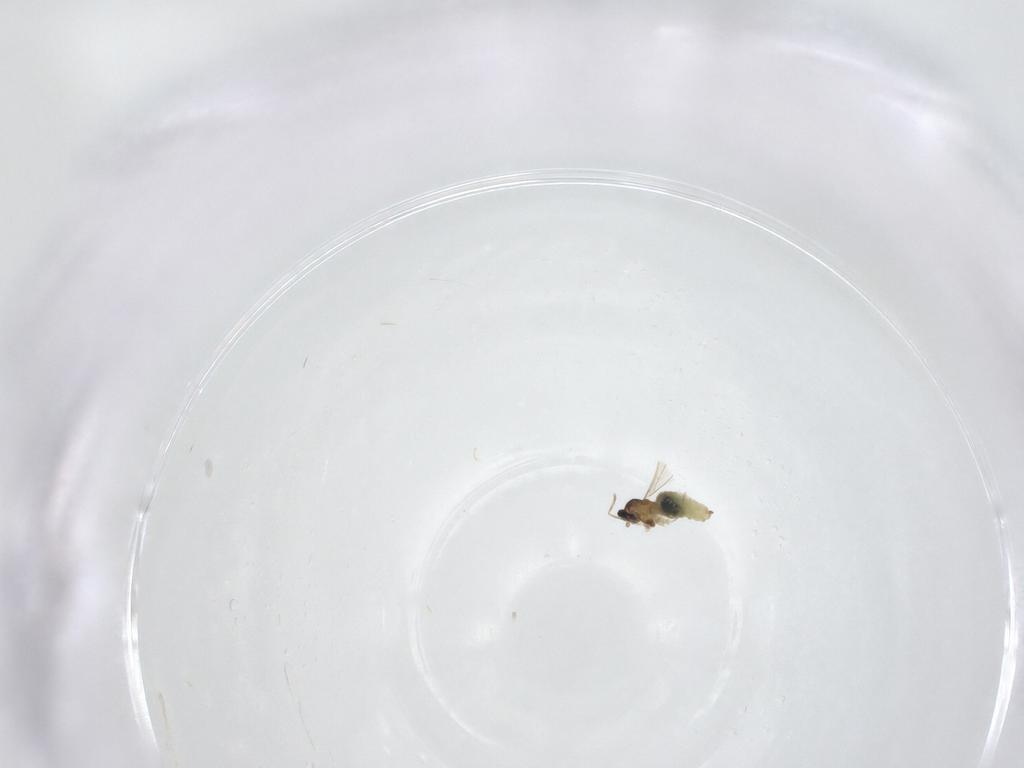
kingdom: Animalia
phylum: Arthropoda
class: Insecta
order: Diptera
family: Cecidomyiidae
